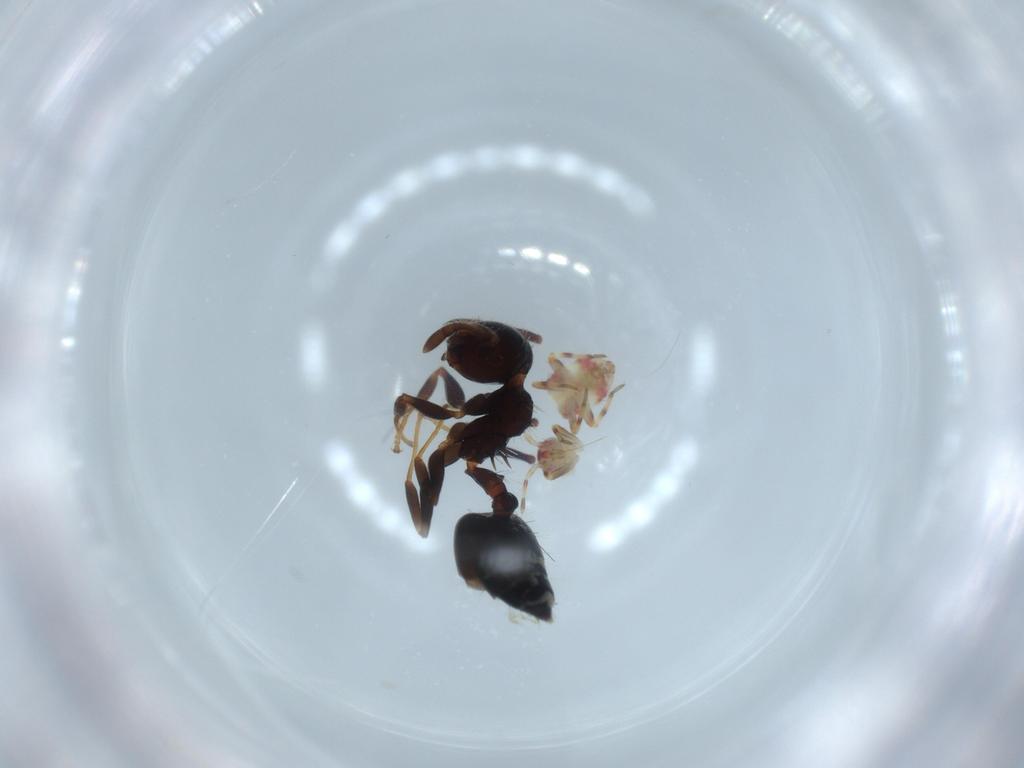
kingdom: Animalia
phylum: Arthropoda
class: Insecta
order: Hemiptera
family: Miridae
